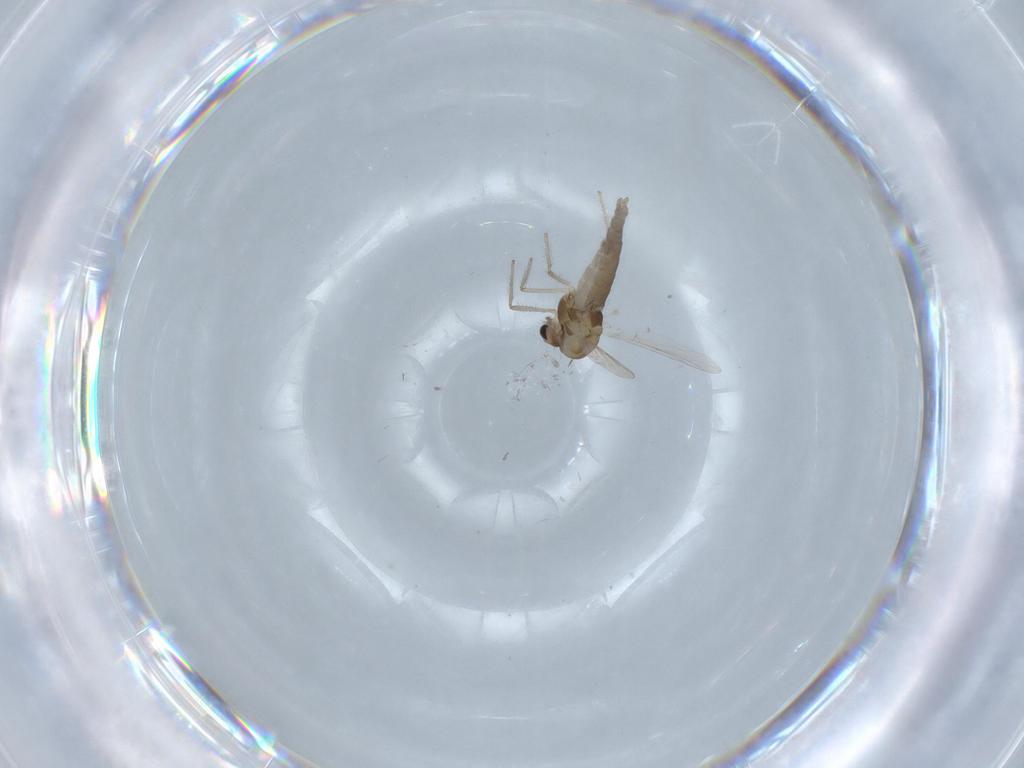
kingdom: Animalia
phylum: Arthropoda
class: Insecta
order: Diptera
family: Chironomidae
